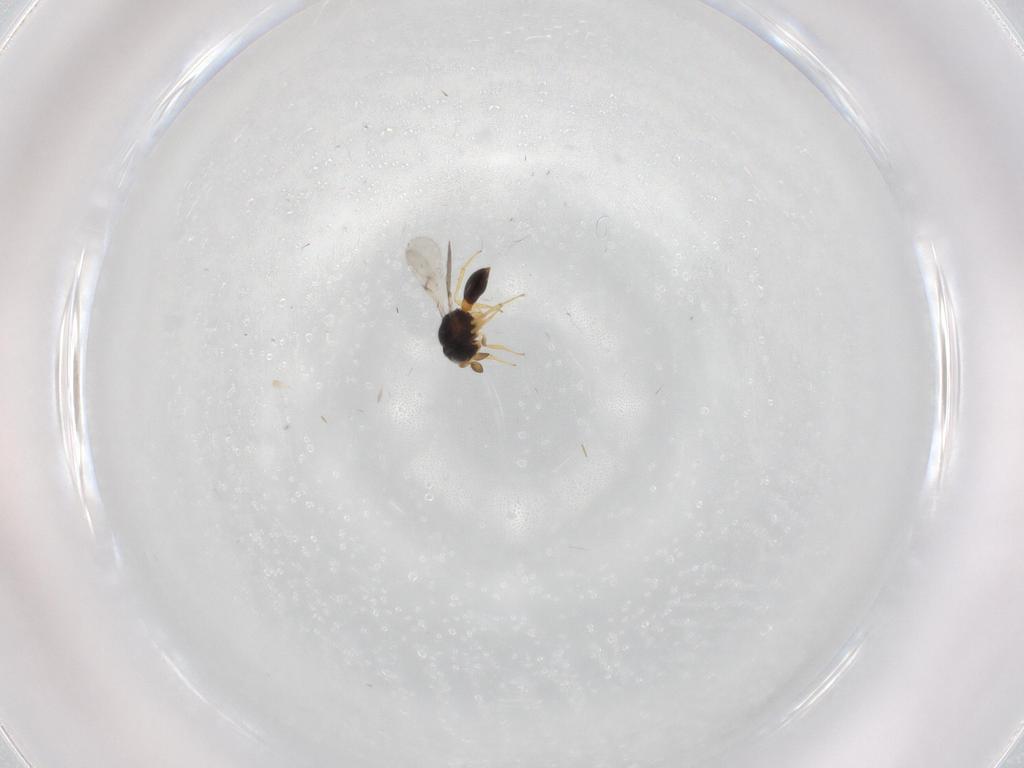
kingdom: Animalia
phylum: Arthropoda
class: Insecta
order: Hymenoptera
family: Scelionidae
